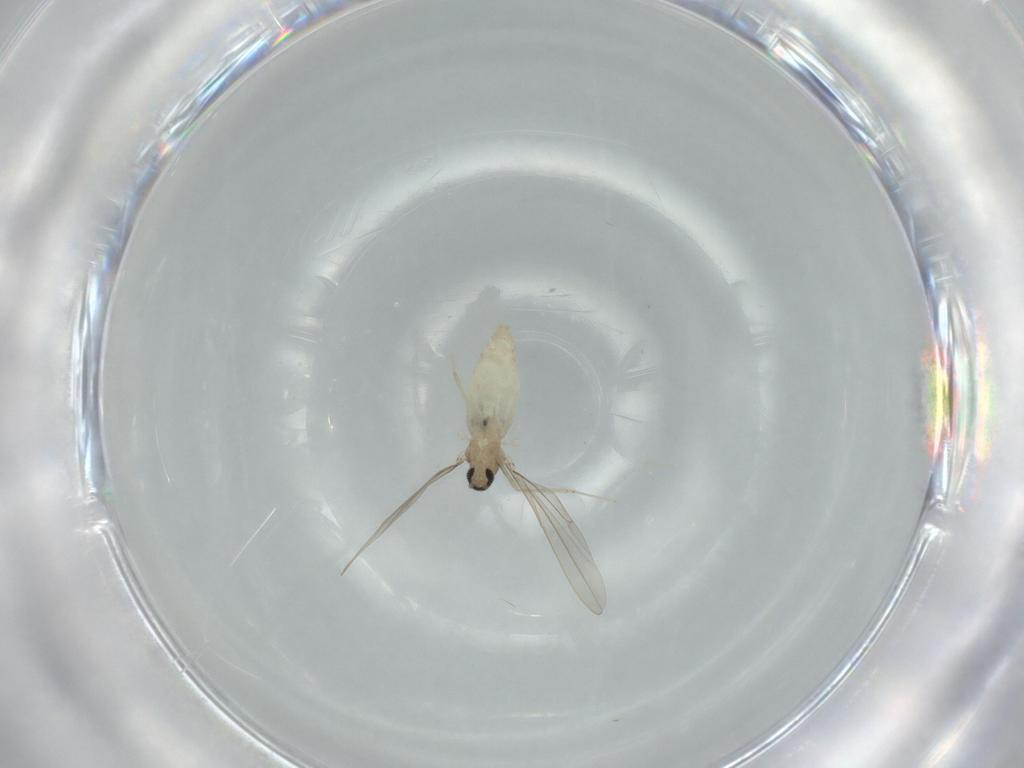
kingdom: Animalia
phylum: Arthropoda
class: Insecta
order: Diptera
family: Cecidomyiidae
